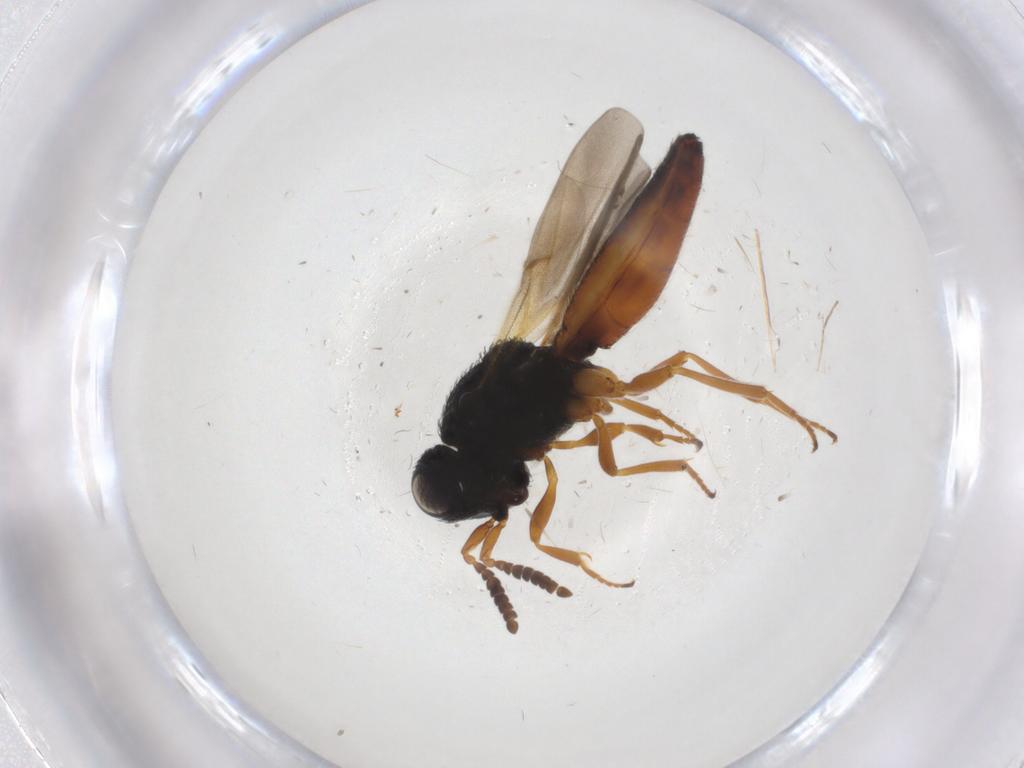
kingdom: Animalia
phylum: Arthropoda
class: Insecta
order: Hymenoptera
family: Scelionidae
